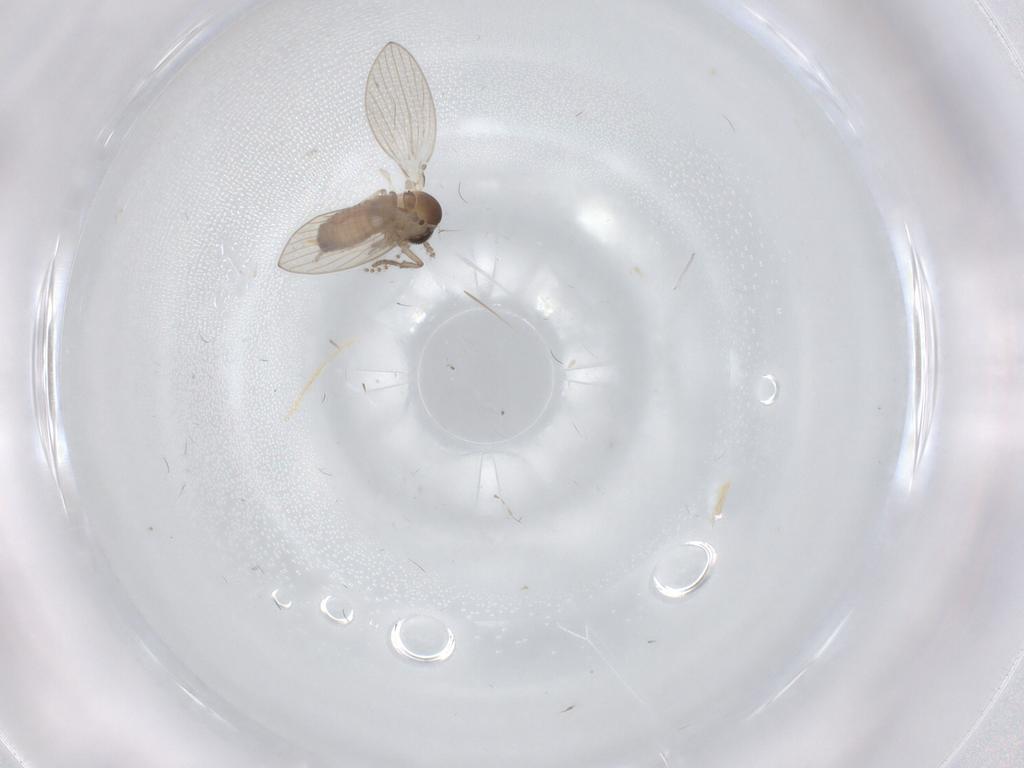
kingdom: Animalia
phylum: Arthropoda
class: Insecta
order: Diptera
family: Psychodidae
